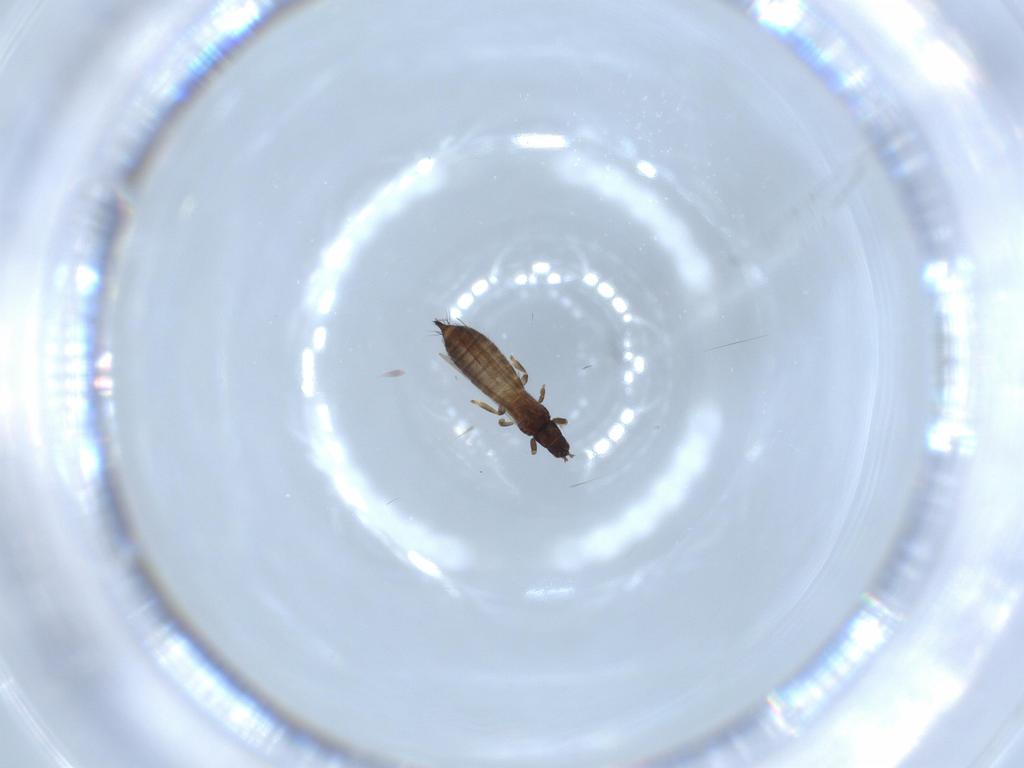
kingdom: Animalia
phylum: Arthropoda
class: Insecta
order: Thysanoptera
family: Thripidae
